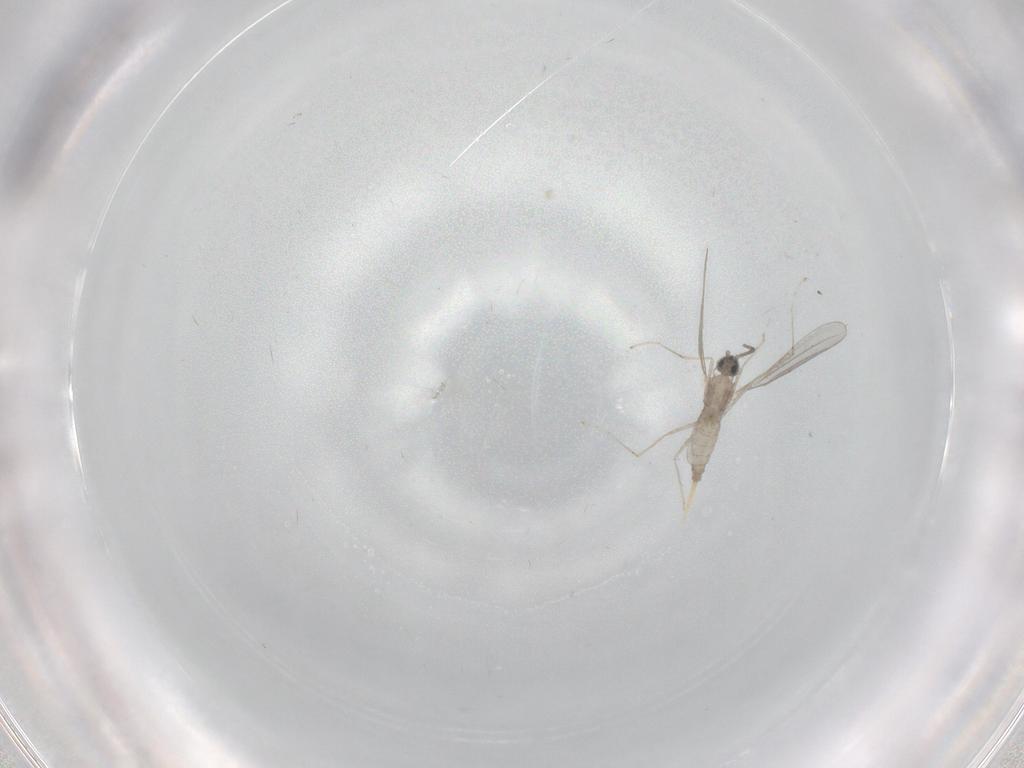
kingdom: Animalia
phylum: Arthropoda
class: Insecta
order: Diptera
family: Cecidomyiidae
